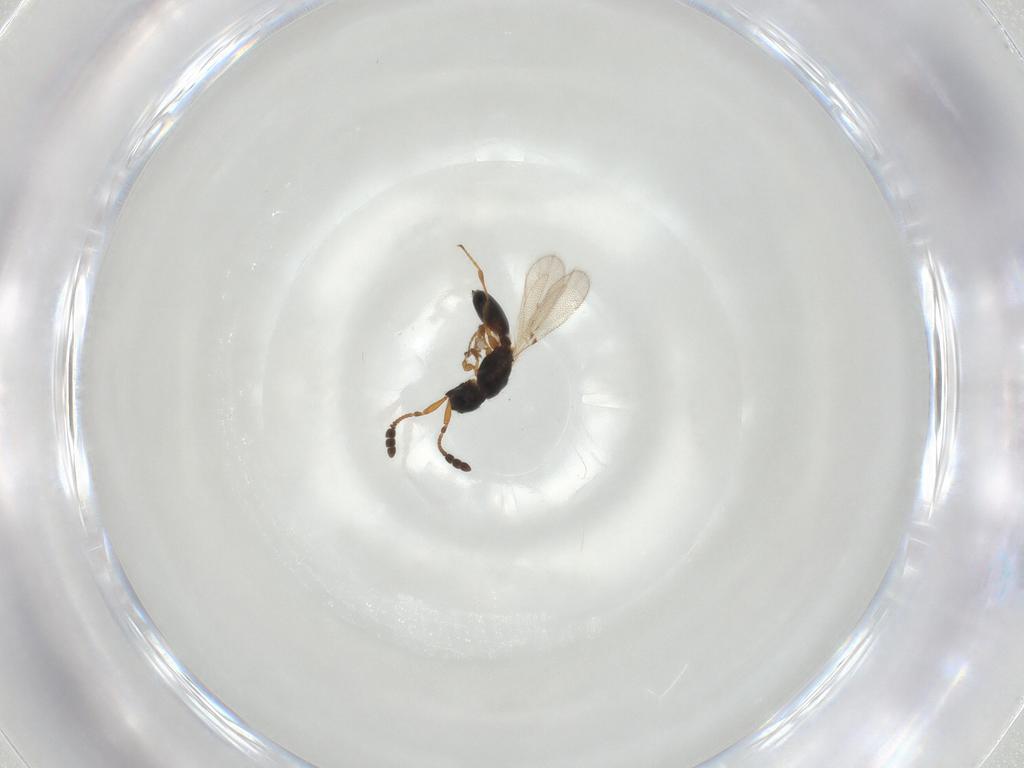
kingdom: Animalia
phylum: Arthropoda
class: Insecta
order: Hymenoptera
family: Diapriidae
